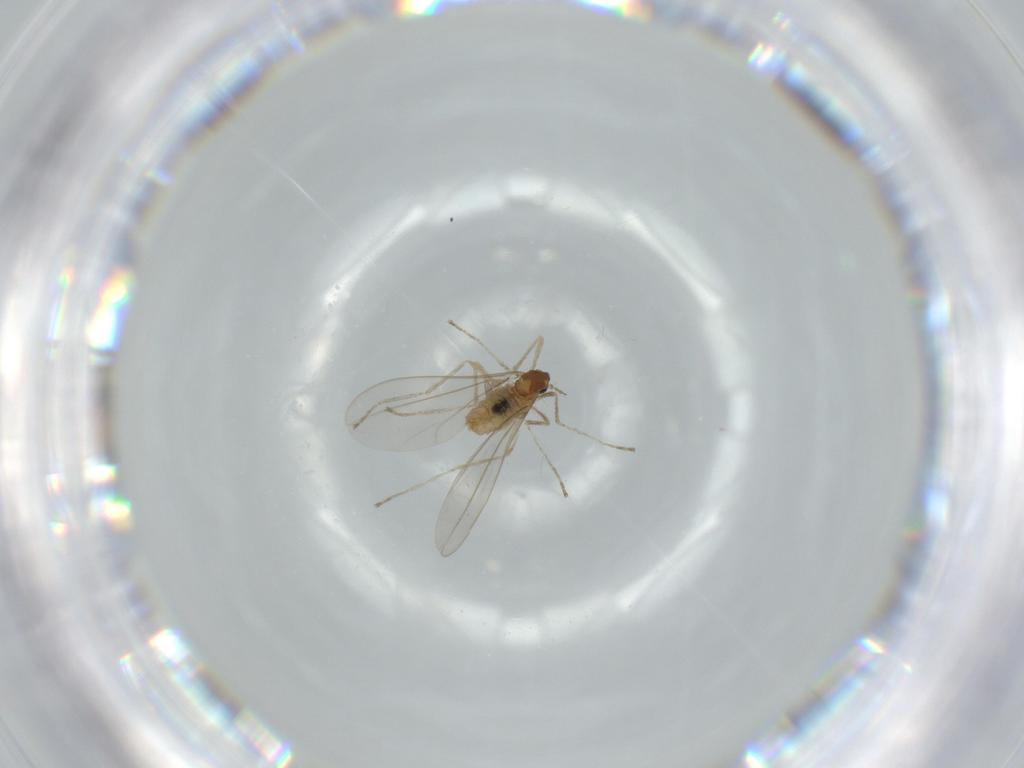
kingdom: Animalia
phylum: Arthropoda
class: Insecta
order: Diptera
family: Cecidomyiidae
